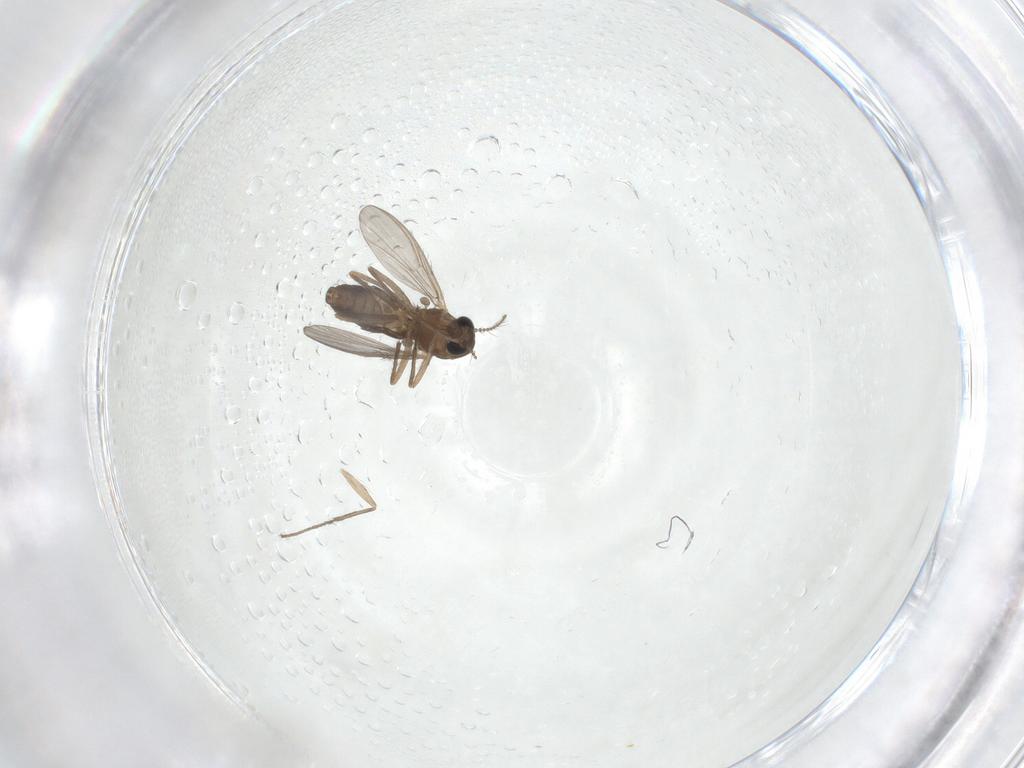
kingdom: Animalia
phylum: Arthropoda
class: Insecta
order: Diptera
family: Chironomidae
